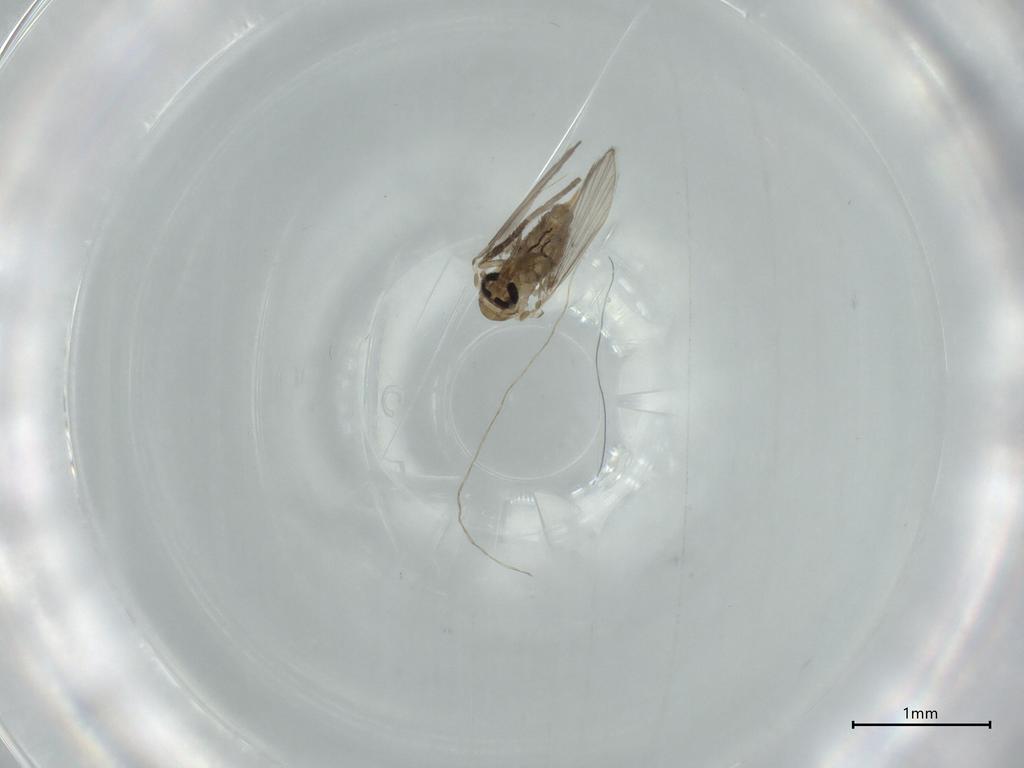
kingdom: Animalia
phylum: Arthropoda
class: Insecta
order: Diptera
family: Psychodidae
